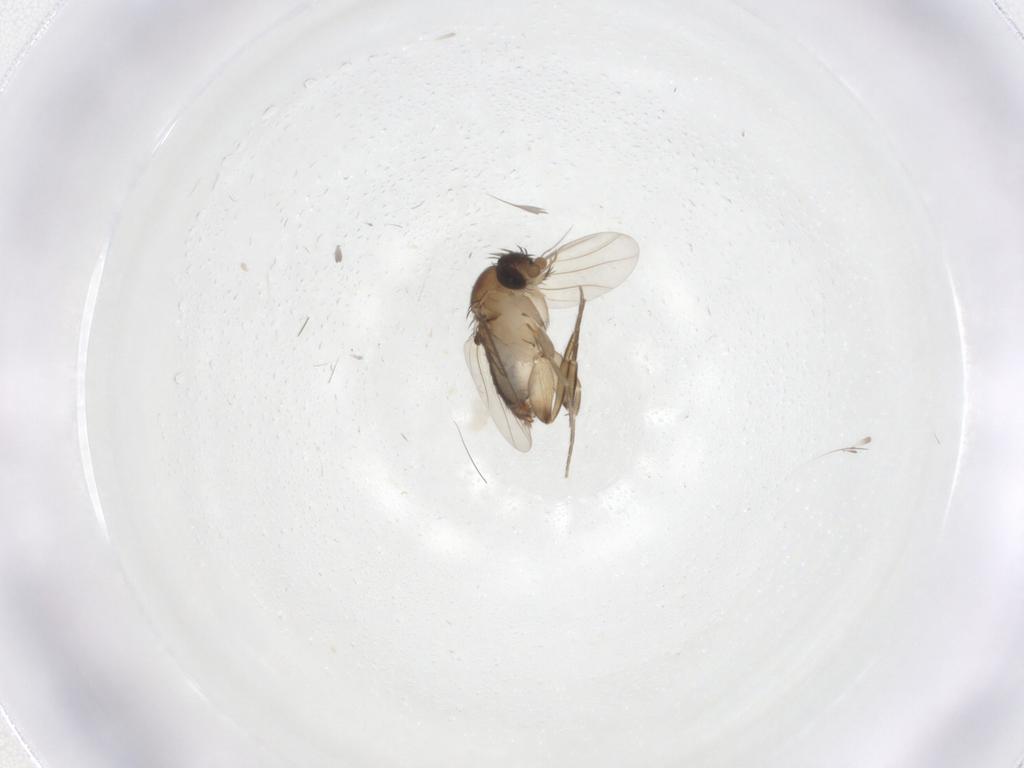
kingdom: Animalia
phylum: Arthropoda
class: Insecta
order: Diptera
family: Phoridae
